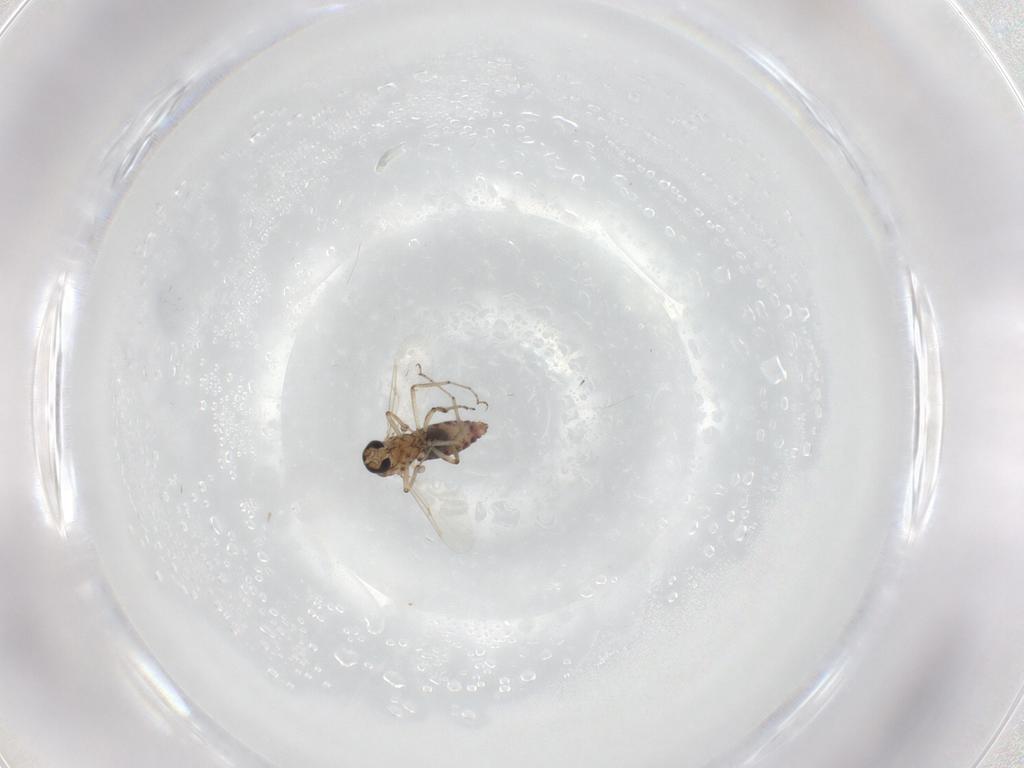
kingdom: Animalia
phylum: Arthropoda
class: Insecta
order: Diptera
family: Ceratopogonidae
